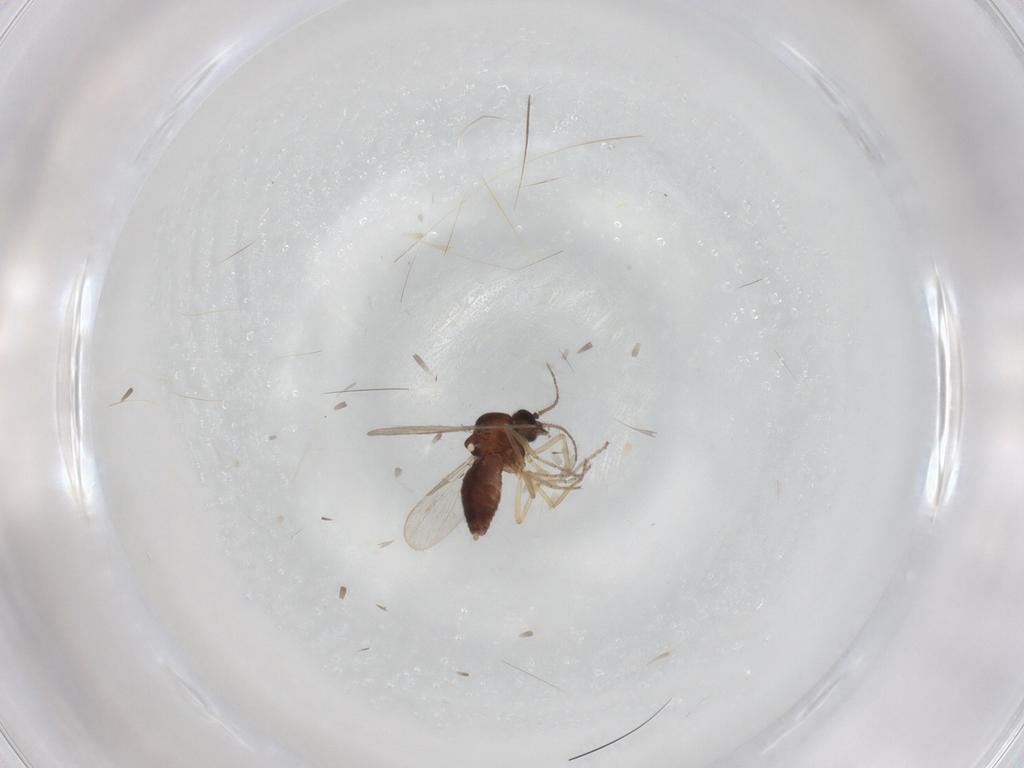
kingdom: Animalia
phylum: Arthropoda
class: Insecta
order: Diptera
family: Ceratopogonidae
